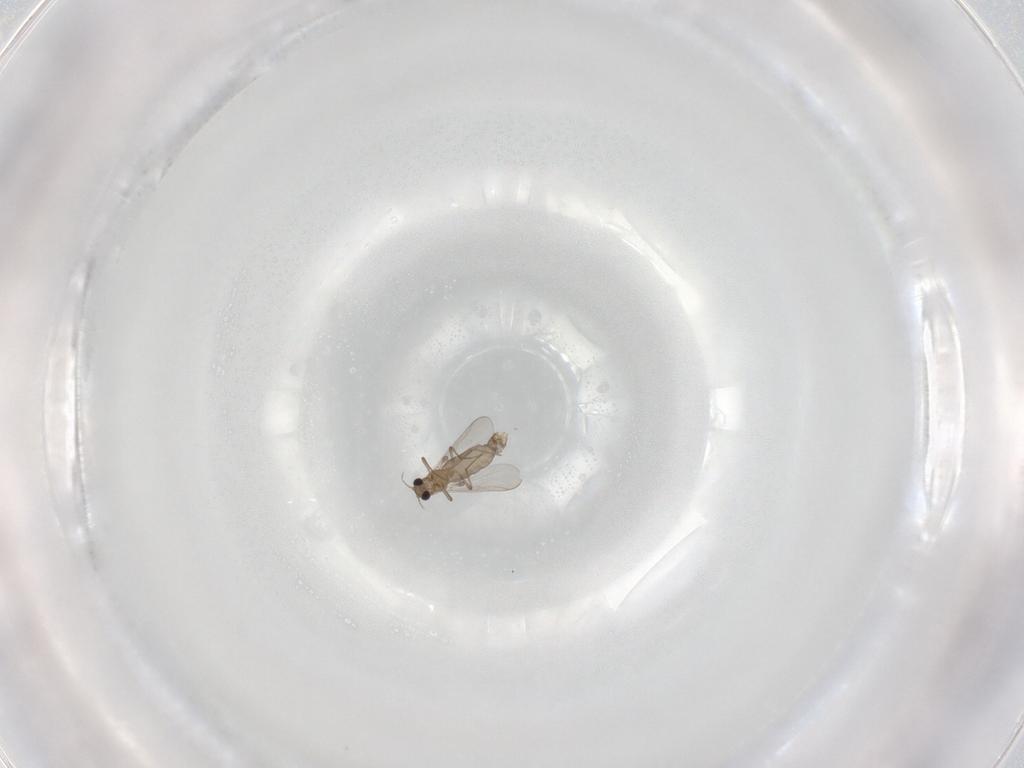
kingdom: Animalia
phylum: Arthropoda
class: Insecta
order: Diptera
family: Chironomidae
